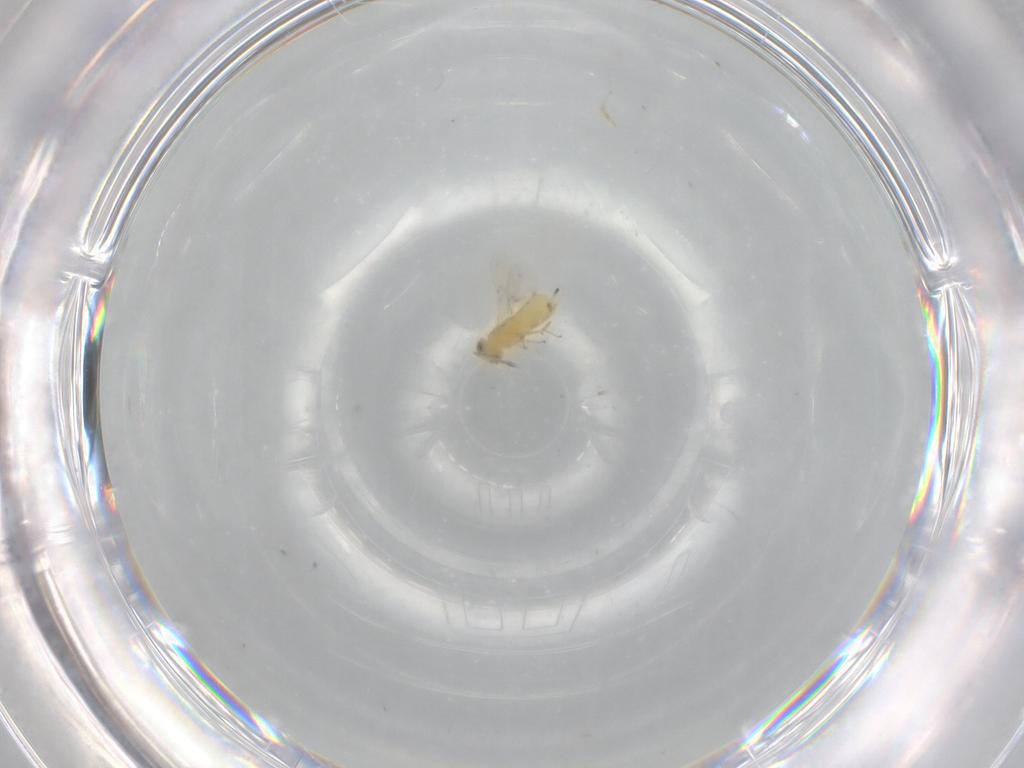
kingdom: Animalia
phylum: Arthropoda
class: Insecta
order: Hymenoptera
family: Encyrtidae
